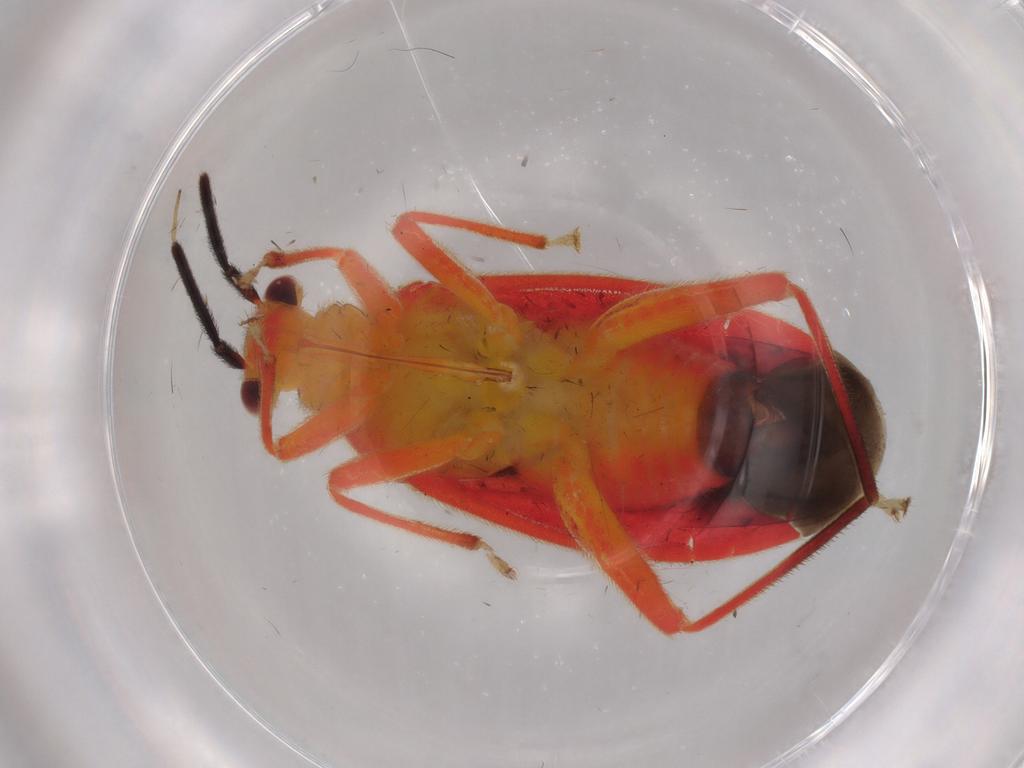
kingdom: Animalia
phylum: Arthropoda
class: Insecta
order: Hemiptera
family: Miridae
